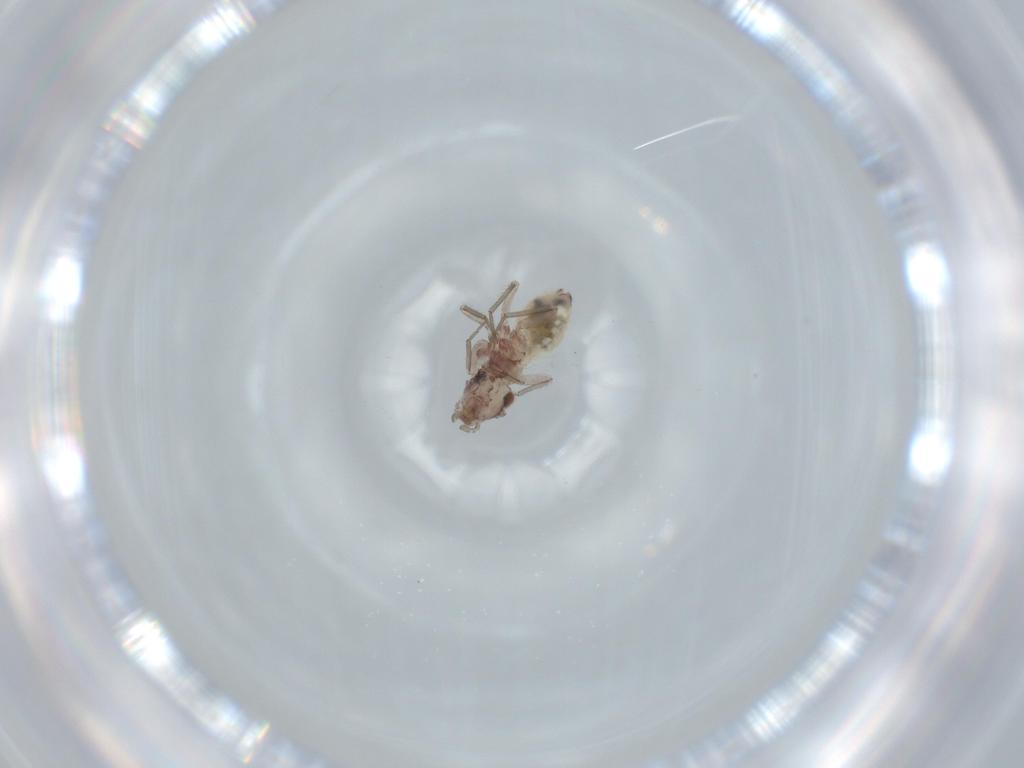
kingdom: Animalia
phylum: Arthropoda
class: Insecta
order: Psocodea
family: Lepidopsocidae
